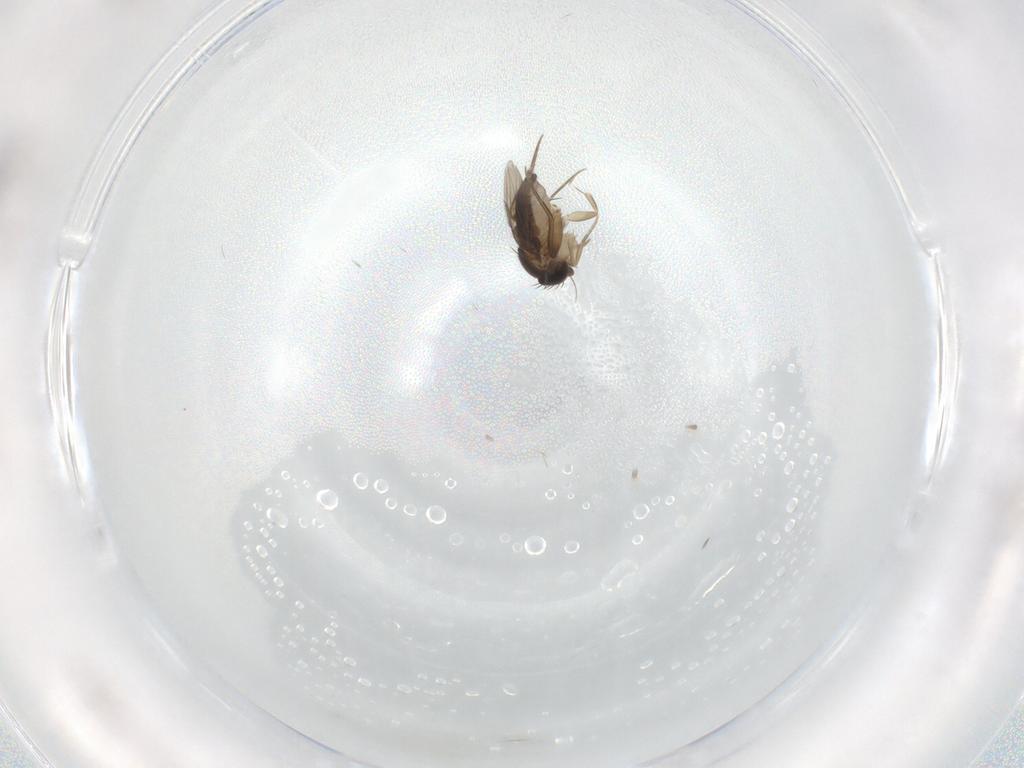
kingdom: Animalia
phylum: Arthropoda
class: Insecta
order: Diptera
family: Phoridae
